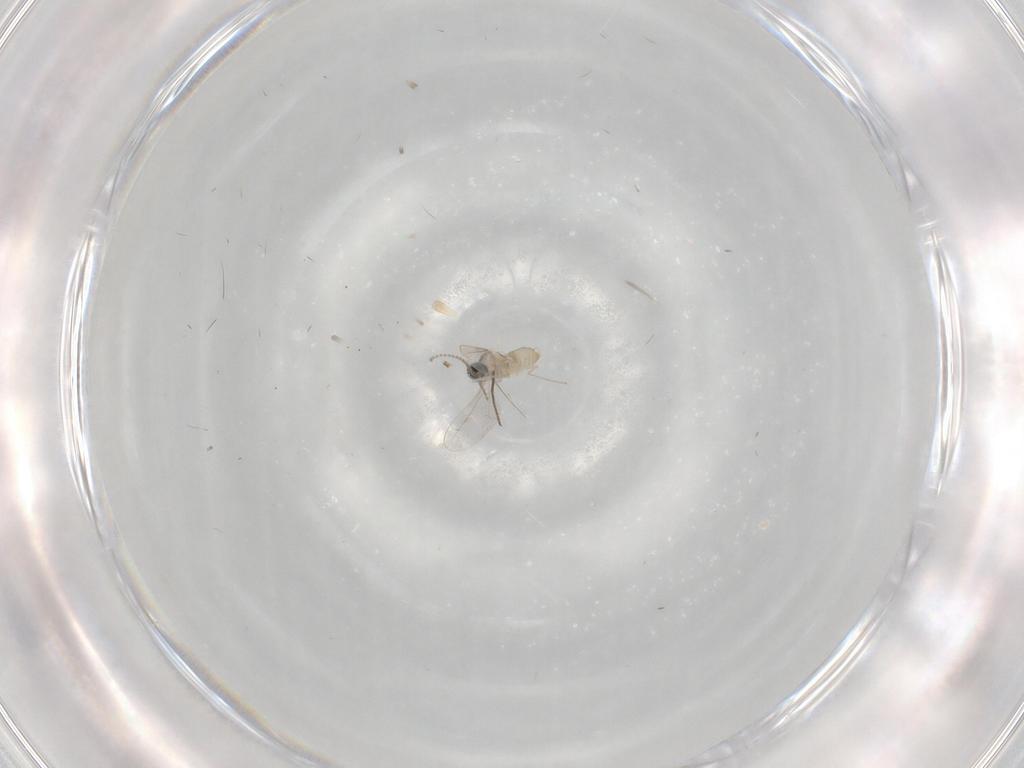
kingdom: Animalia
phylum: Arthropoda
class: Insecta
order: Diptera
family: Cecidomyiidae
